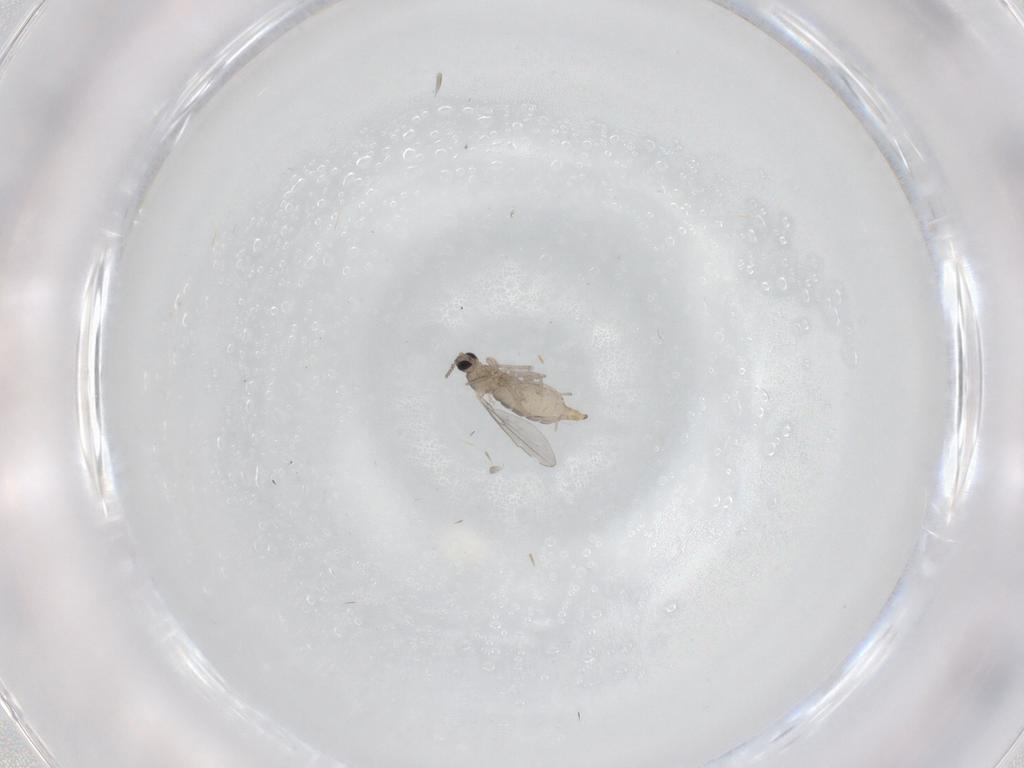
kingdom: Animalia
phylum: Arthropoda
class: Insecta
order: Diptera
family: Cecidomyiidae
